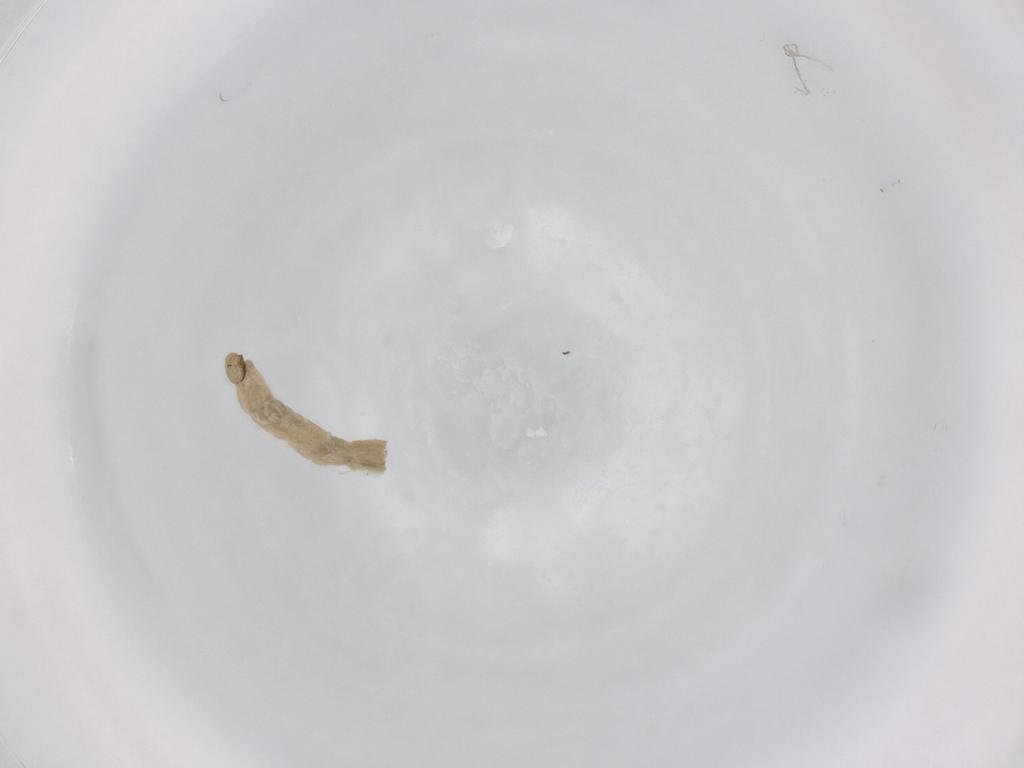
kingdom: Animalia
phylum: Arthropoda
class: Insecta
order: Diptera
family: Chironomidae
